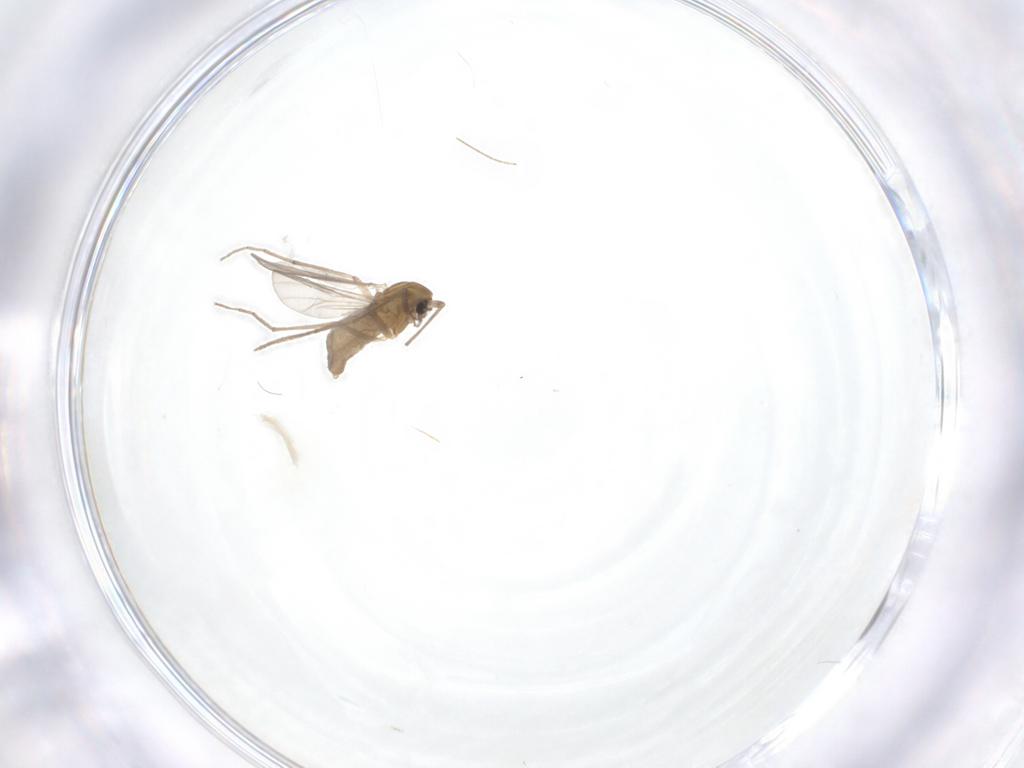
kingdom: Animalia
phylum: Arthropoda
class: Insecta
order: Diptera
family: Chironomidae
